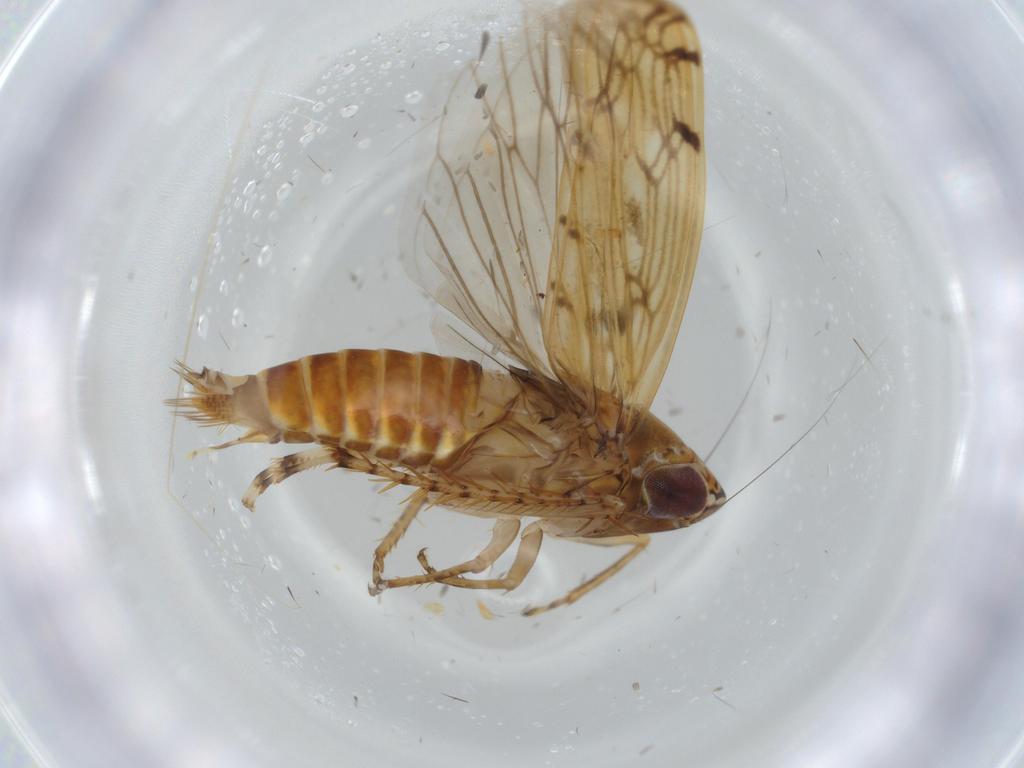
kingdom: Animalia
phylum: Arthropoda
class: Insecta
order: Hemiptera
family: Cicadellidae
